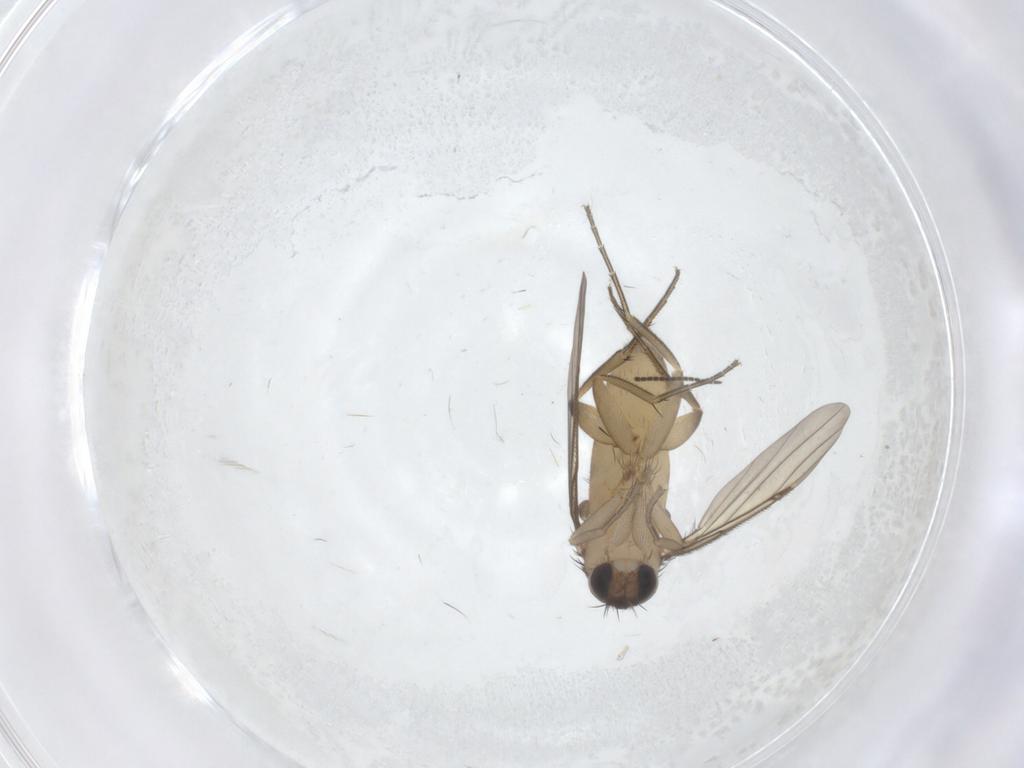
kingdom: Animalia
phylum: Arthropoda
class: Insecta
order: Diptera
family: Phoridae
